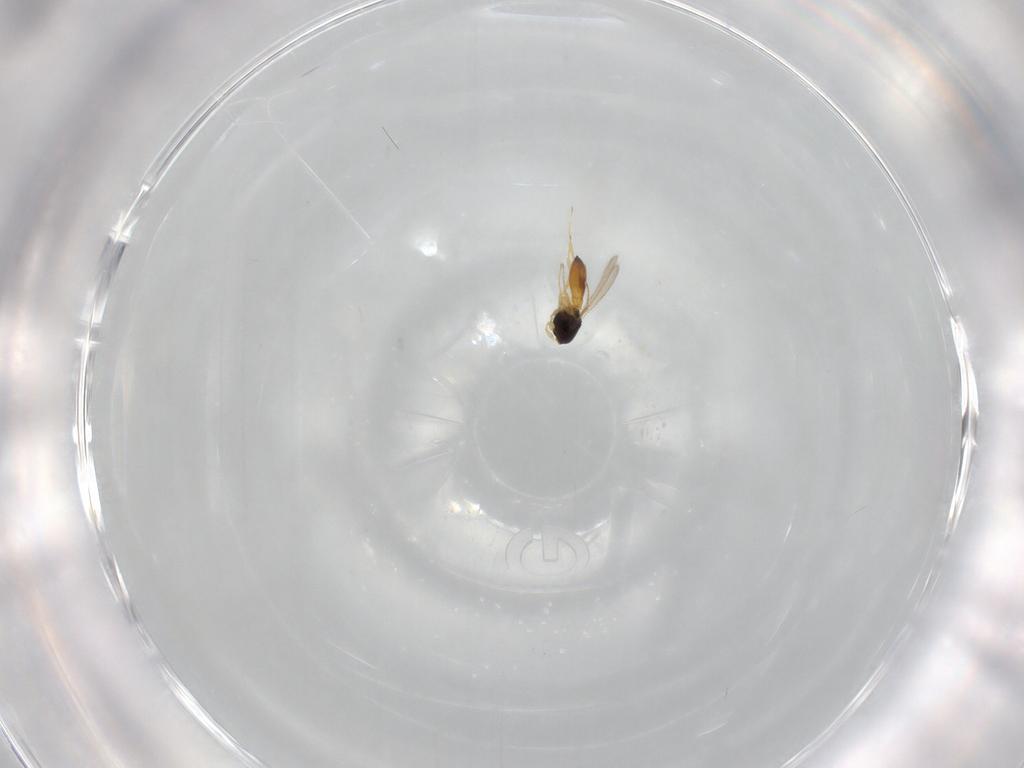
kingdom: Animalia
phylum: Arthropoda
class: Insecta
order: Hymenoptera
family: Scelionidae
